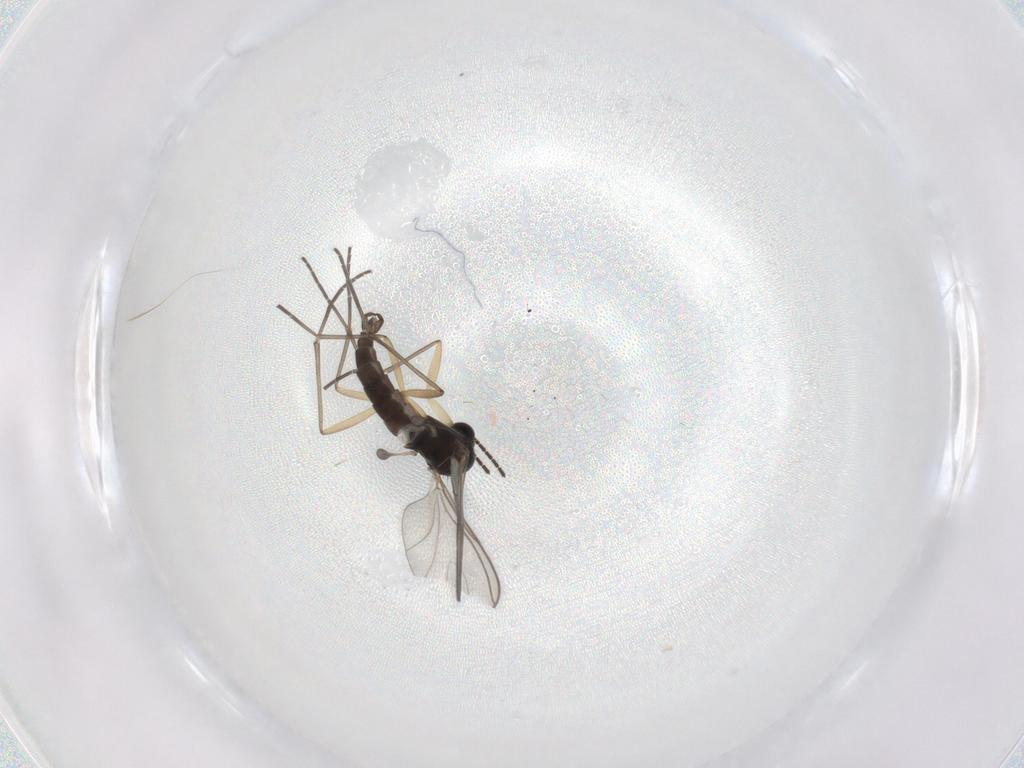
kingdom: Animalia
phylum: Arthropoda
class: Insecta
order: Diptera
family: Sciaridae
